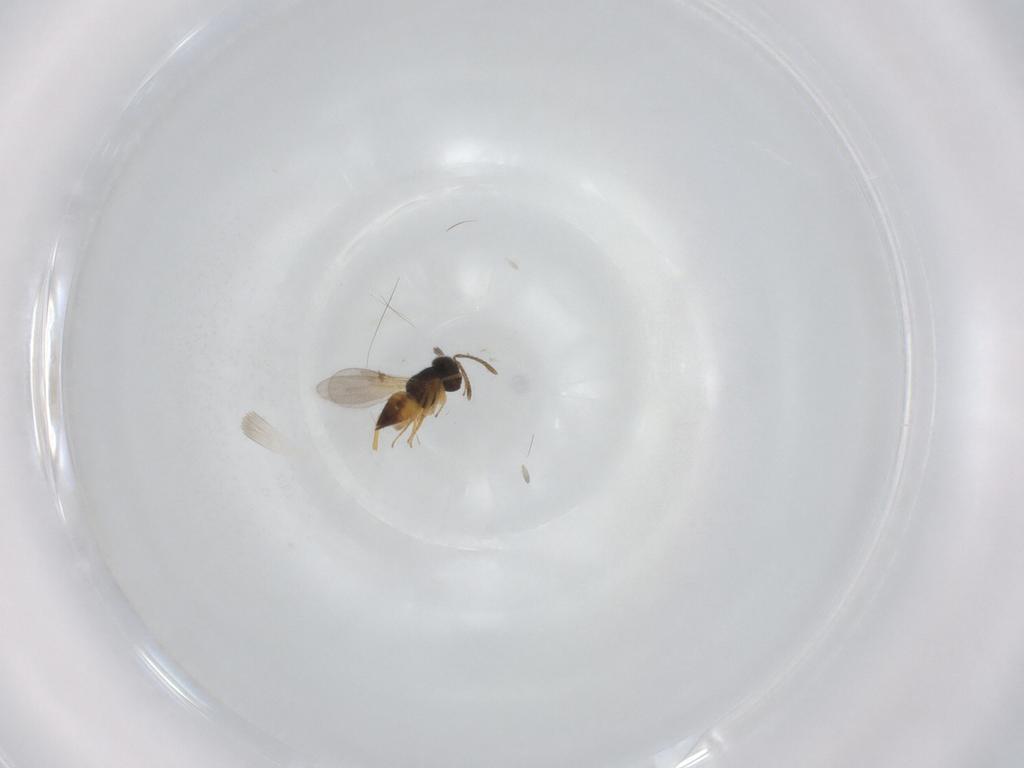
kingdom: Animalia
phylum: Arthropoda
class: Insecta
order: Hymenoptera
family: Encyrtidae
